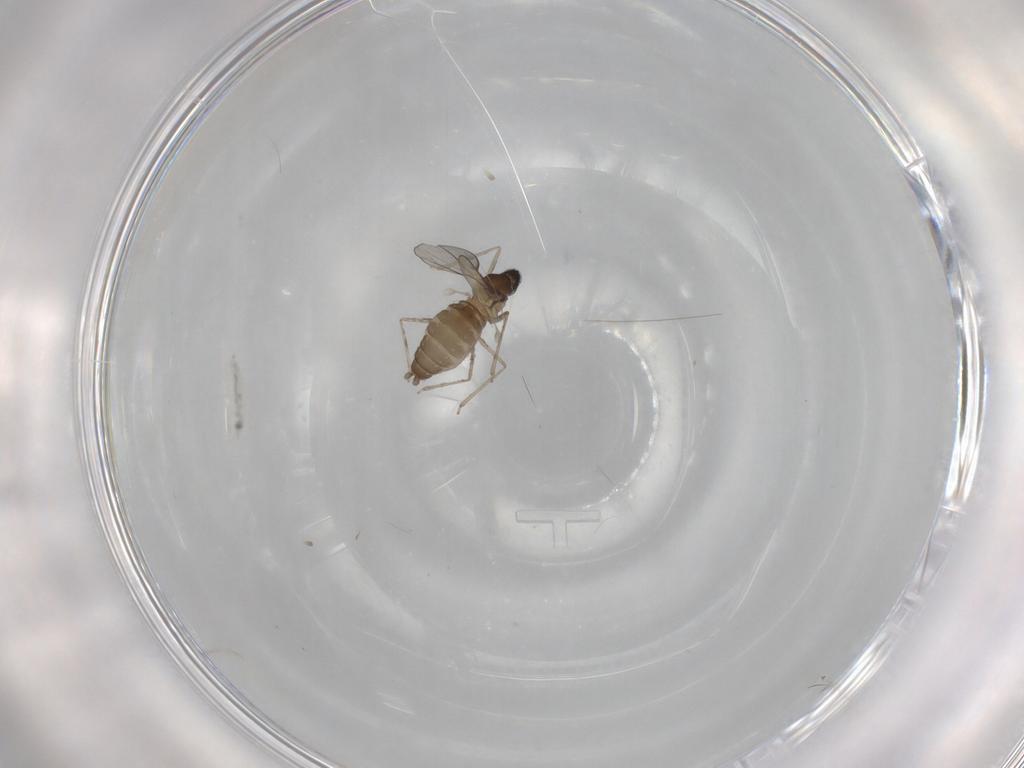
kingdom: Animalia
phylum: Arthropoda
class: Insecta
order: Diptera
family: Cecidomyiidae
